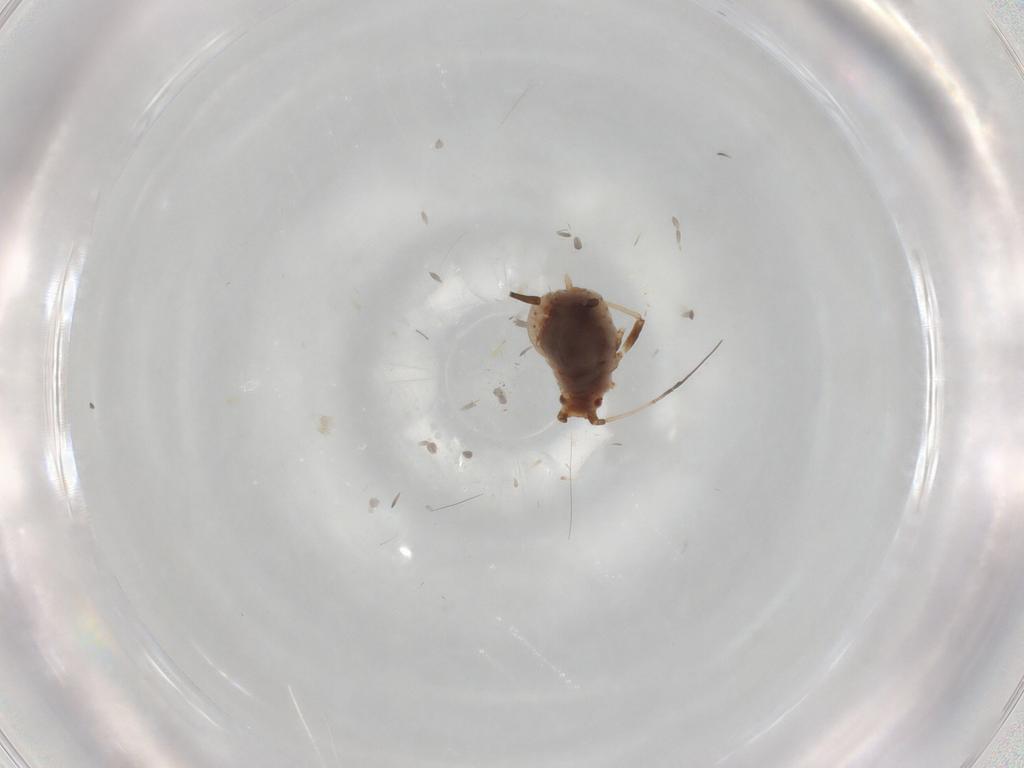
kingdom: Animalia
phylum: Arthropoda
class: Insecta
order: Hemiptera
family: Aphididae
